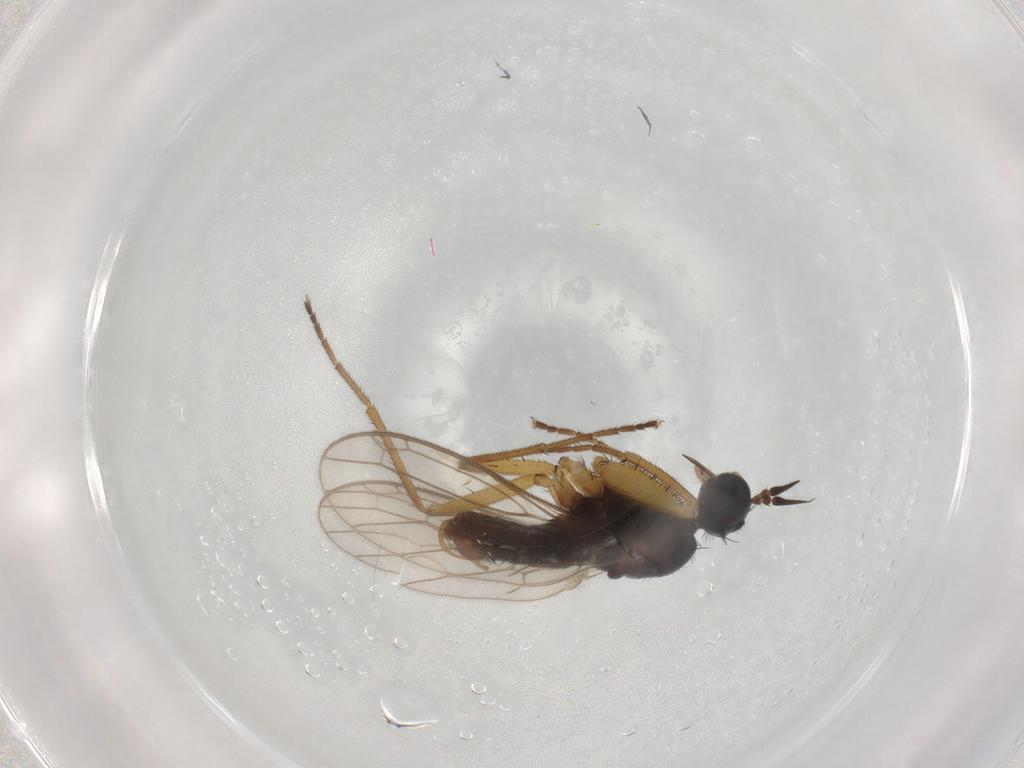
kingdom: Animalia
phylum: Arthropoda
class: Insecta
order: Diptera
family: Empididae
